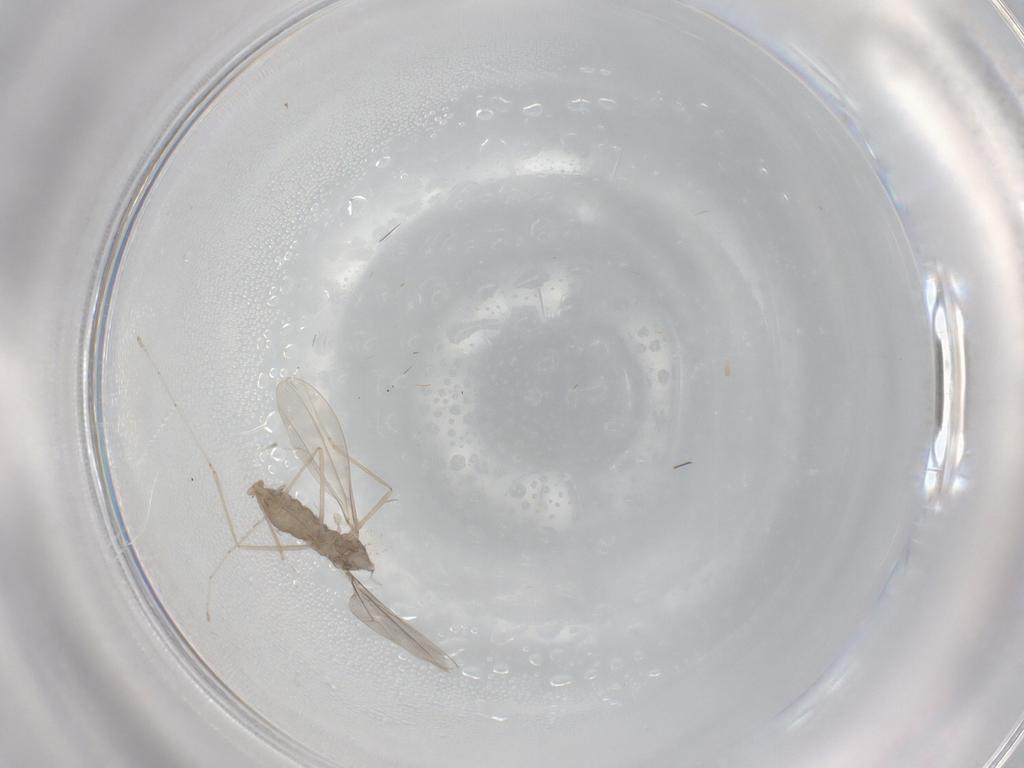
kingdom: Animalia
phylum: Arthropoda
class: Insecta
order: Diptera
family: Cecidomyiidae
